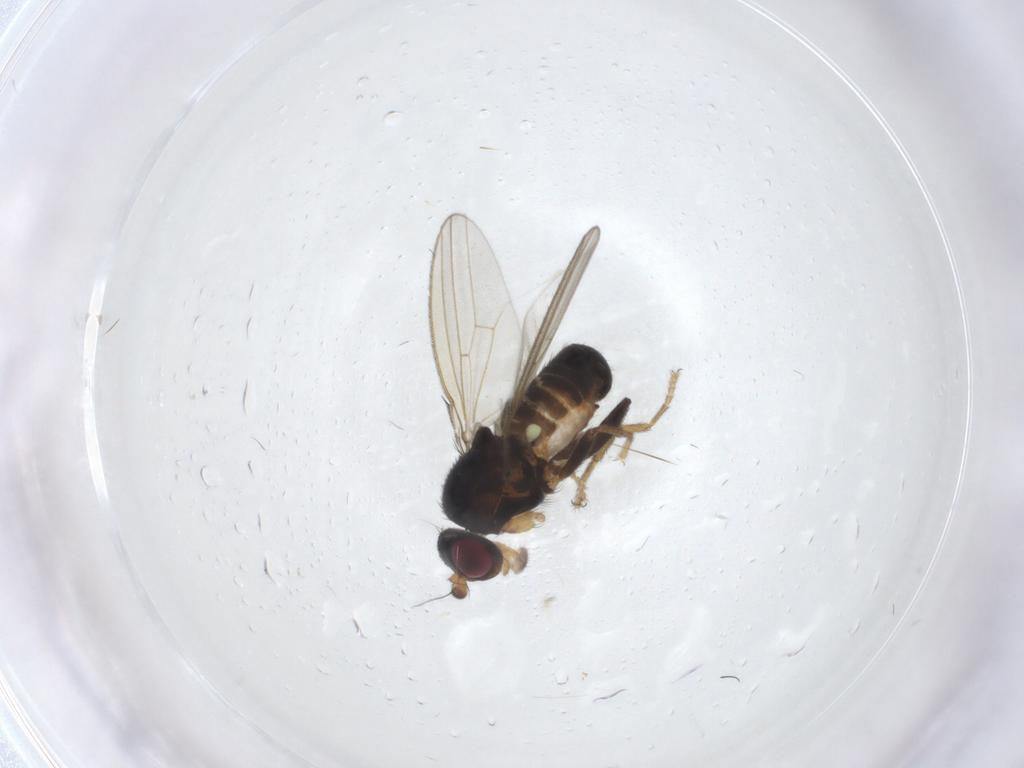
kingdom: Animalia
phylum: Arthropoda
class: Insecta
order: Diptera
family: Cypselosomatidae
